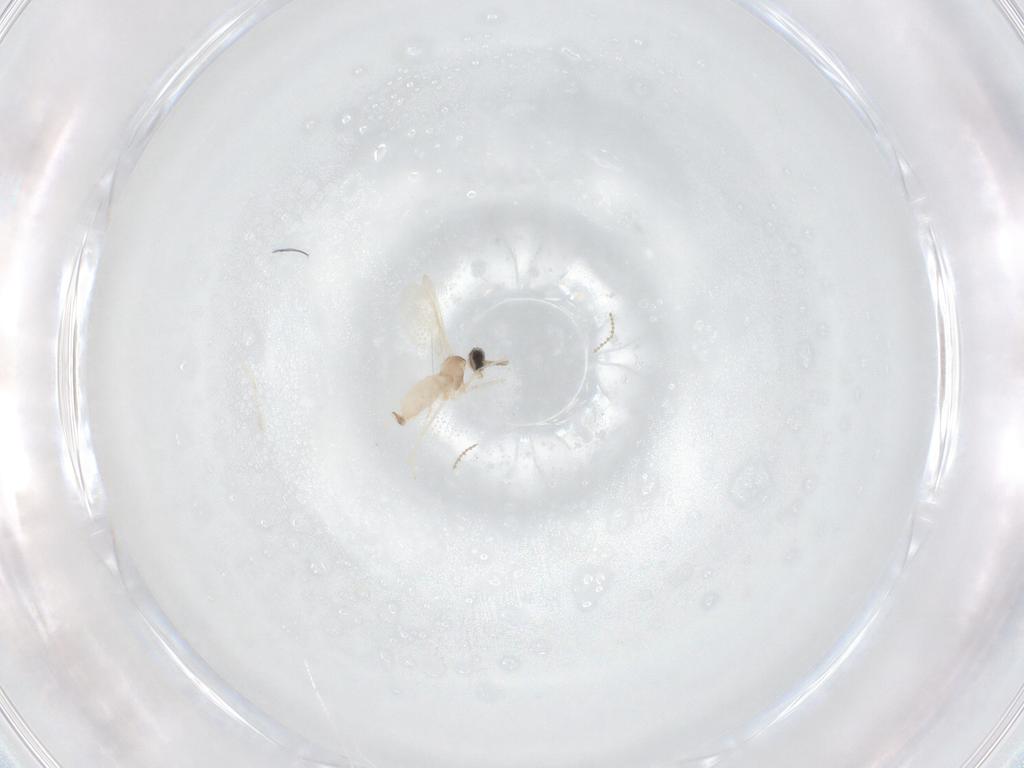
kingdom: Animalia
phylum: Arthropoda
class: Insecta
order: Diptera
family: Cecidomyiidae
